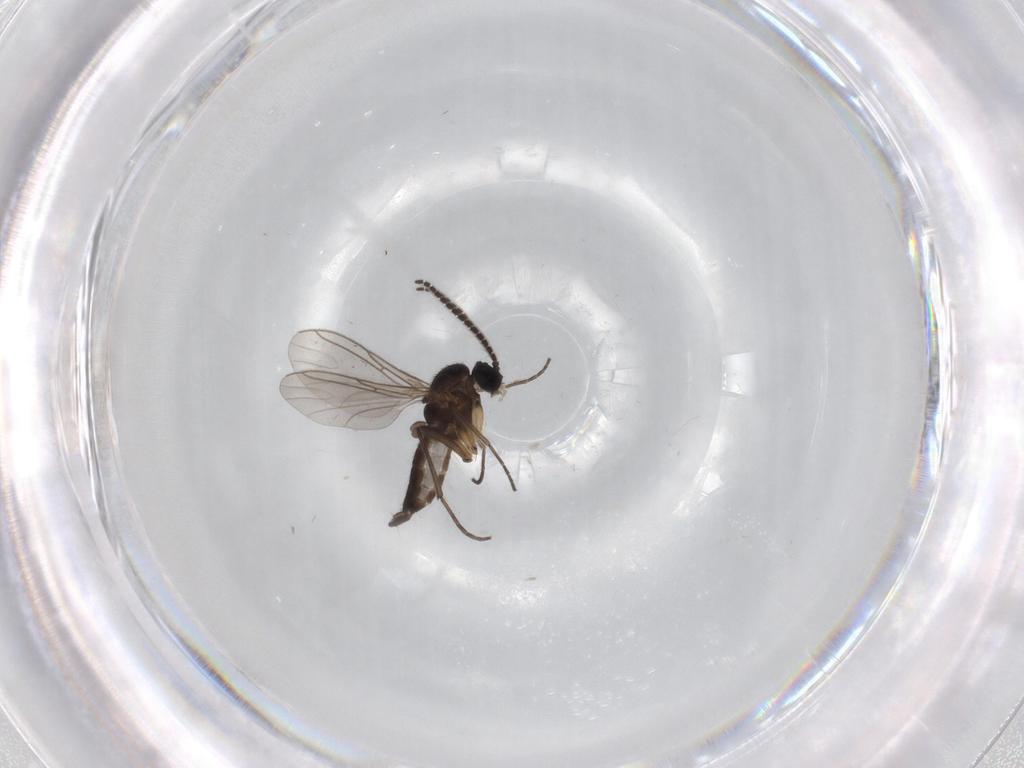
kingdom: Animalia
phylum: Arthropoda
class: Insecta
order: Diptera
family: Sciaridae
